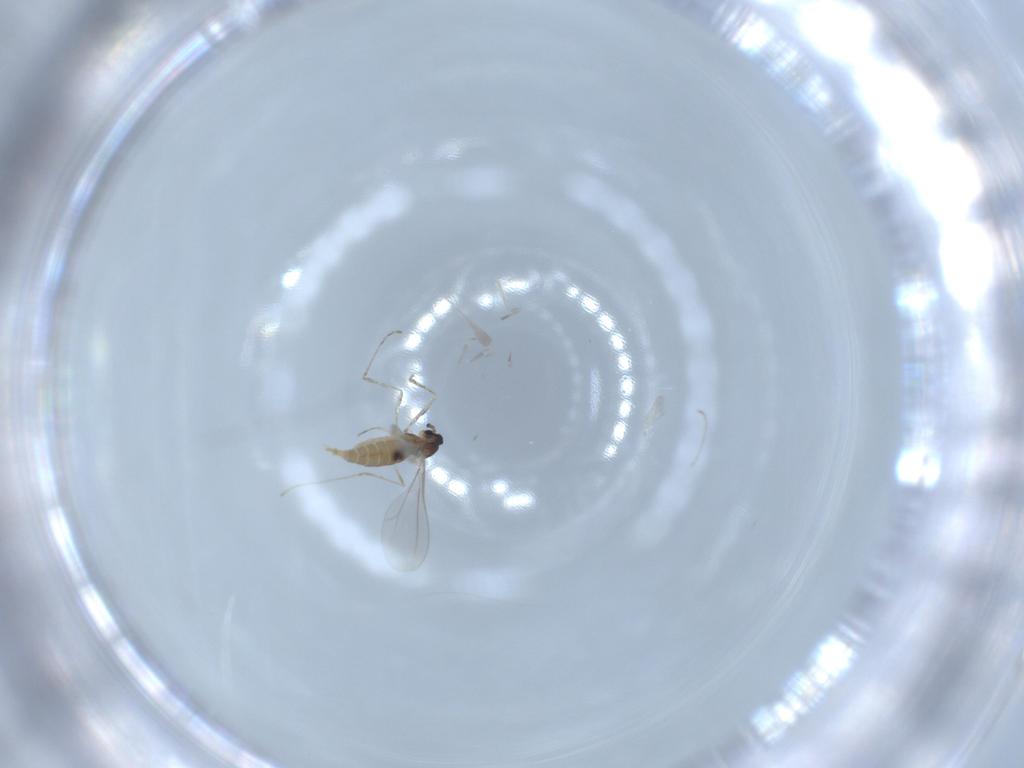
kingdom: Animalia
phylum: Arthropoda
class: Insecta
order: Diptera
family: Cecidomyiidae
